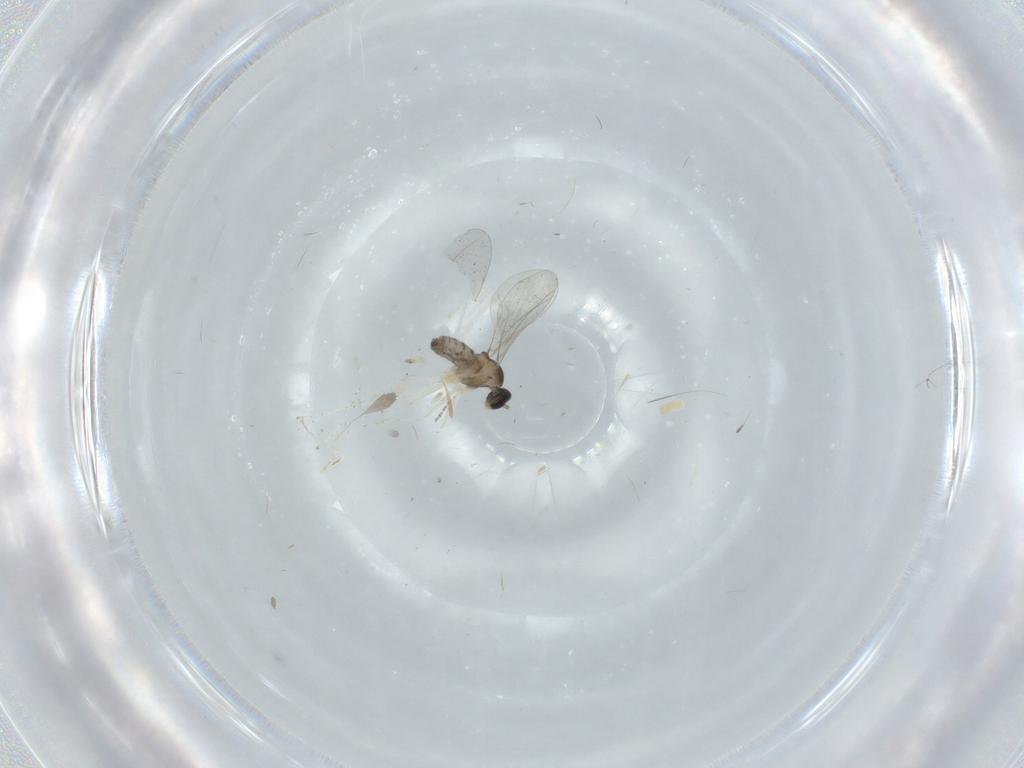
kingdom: Animalia
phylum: Arthropoda
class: Insecta
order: Diptera
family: Cecidomyiidae
